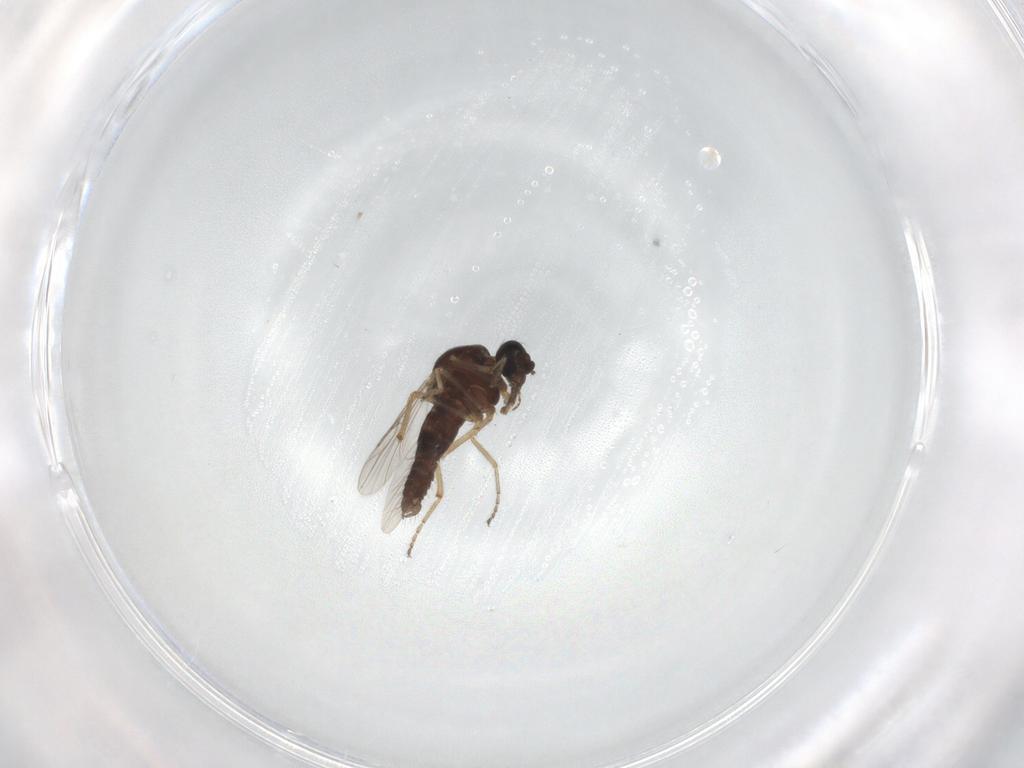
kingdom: Animalia
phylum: Arthropoda
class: Insecta
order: Diptera
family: Ceratopogonidae
